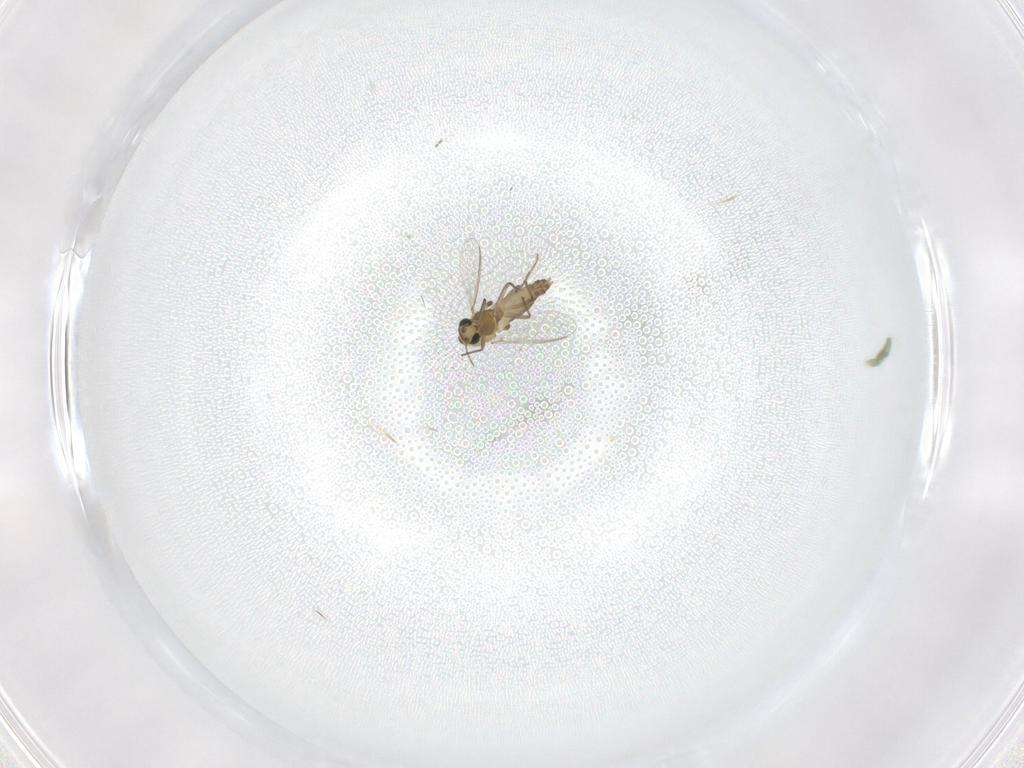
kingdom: Animalia
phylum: Arthropoda
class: Insecta
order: Diptera
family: Chironomidae
